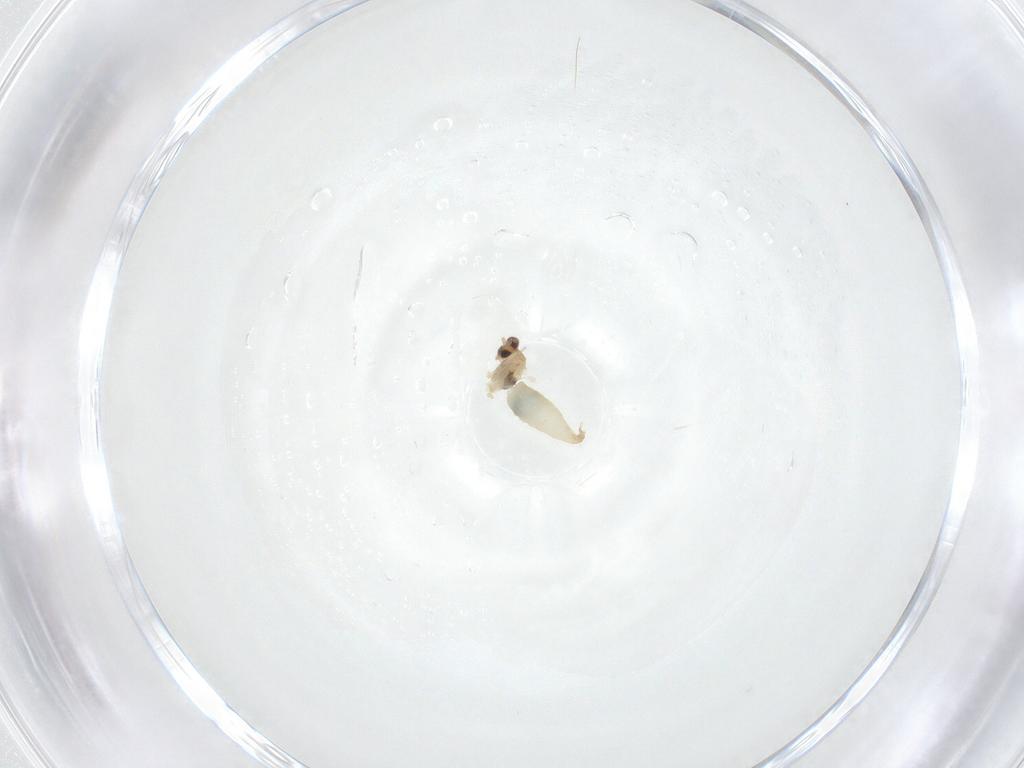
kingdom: Animalia
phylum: Arthropoda
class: Insecta
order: Diptera
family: Cecidomyiidae
